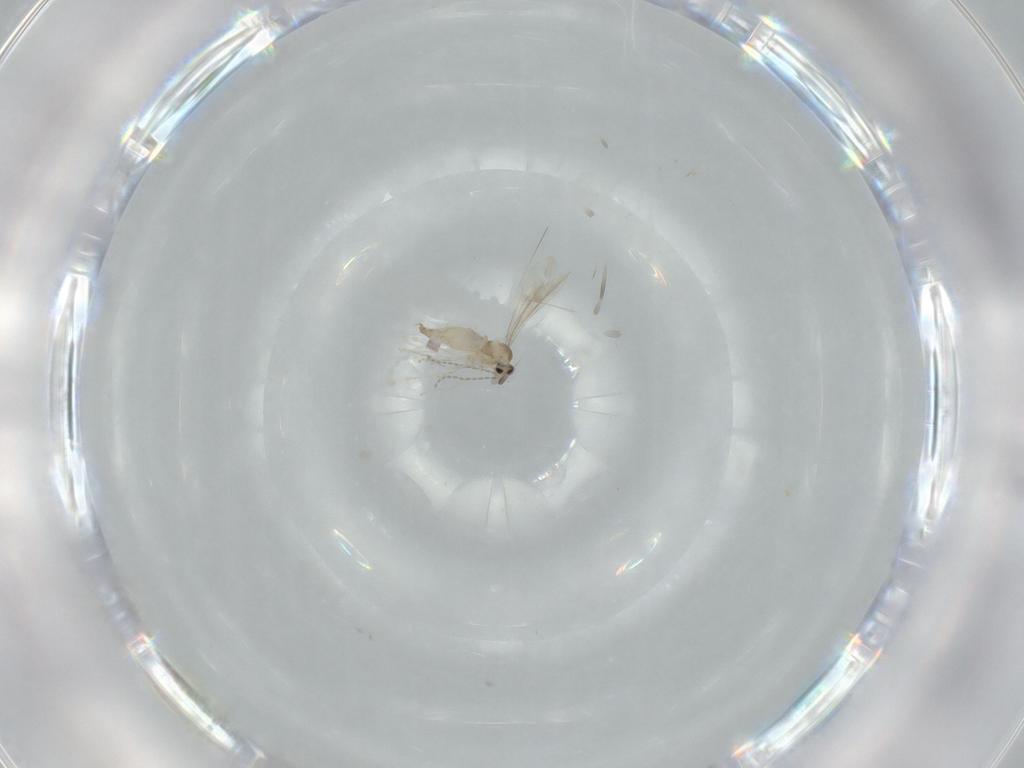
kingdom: Animalia
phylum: Arthropoda
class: Insecta
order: Diptera
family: Cecidomyiidae
